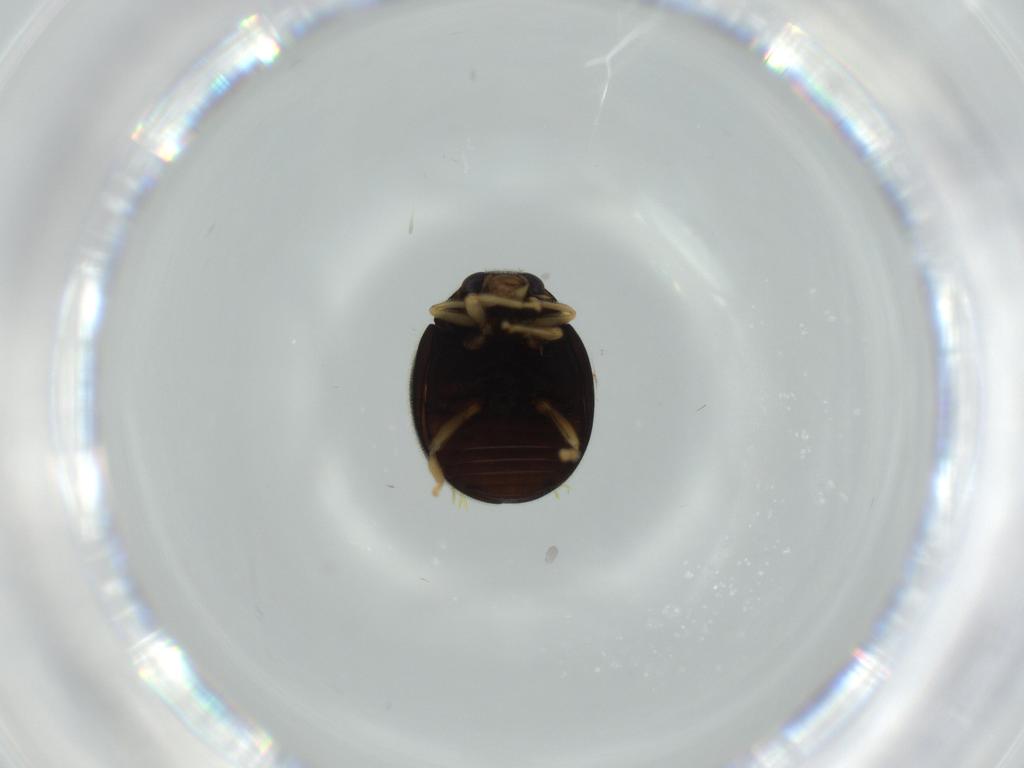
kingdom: Animalia
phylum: Arthropoda
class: Insecta
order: Coleoptera
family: Coccinellidae
